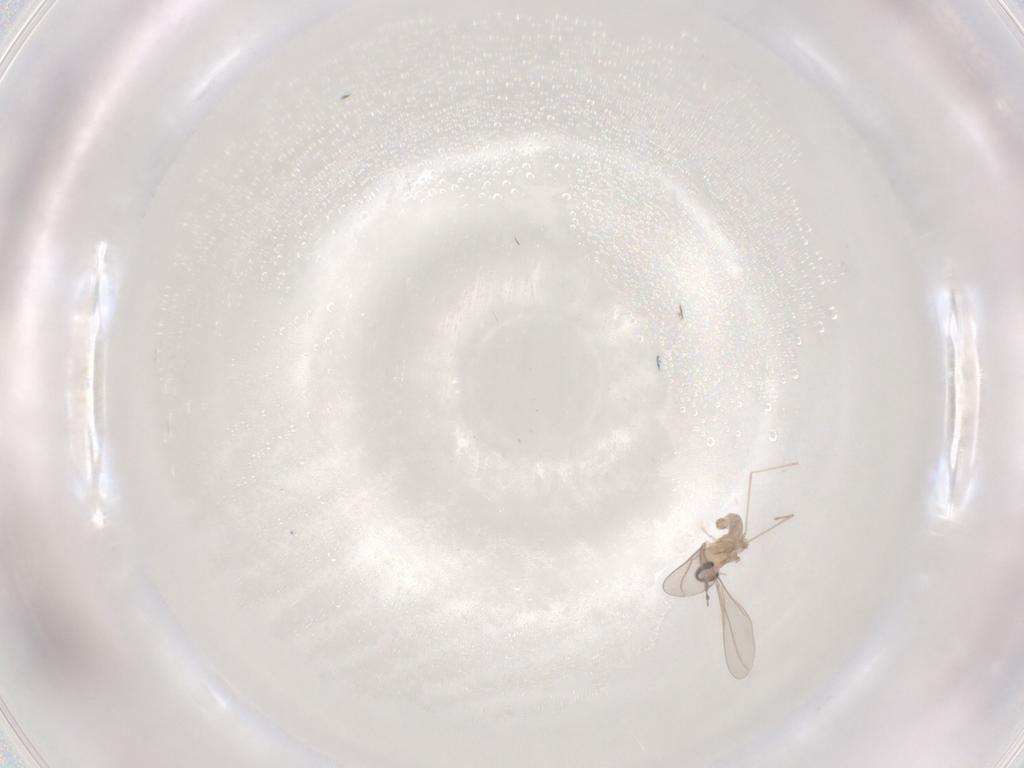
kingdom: Animalia
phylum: Arthropoda
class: Insecta
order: Diptera
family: Cecidomyiidae
